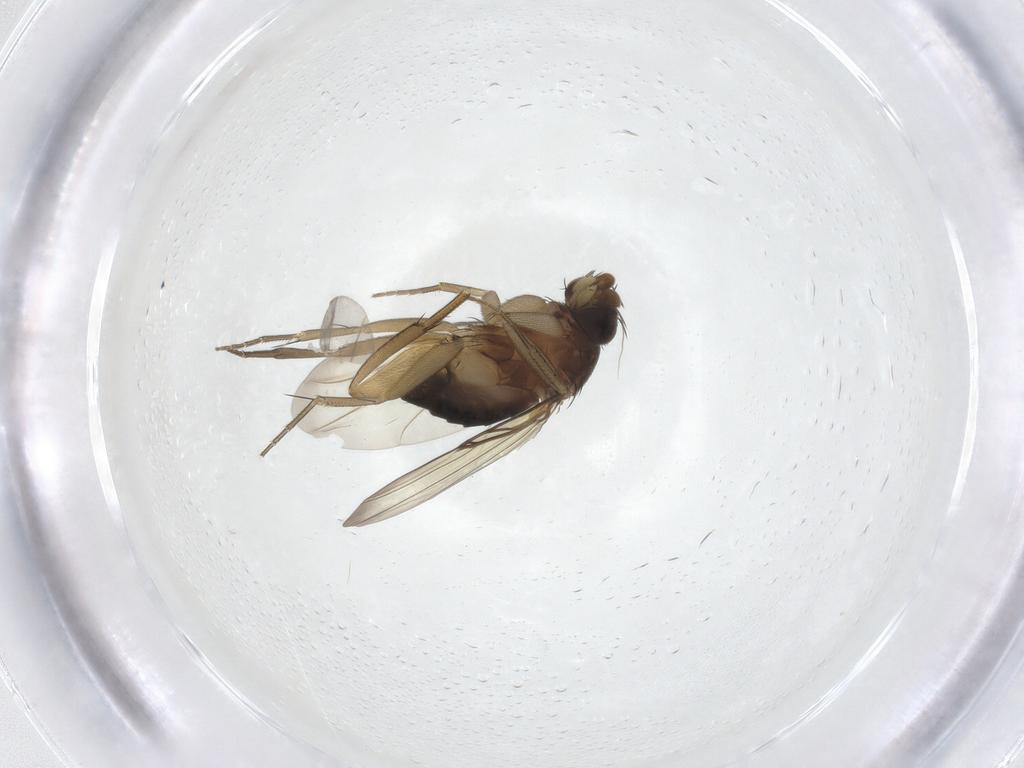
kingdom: Animalia
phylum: Arthropoda
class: Insecta
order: Diptera
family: Phoridae
